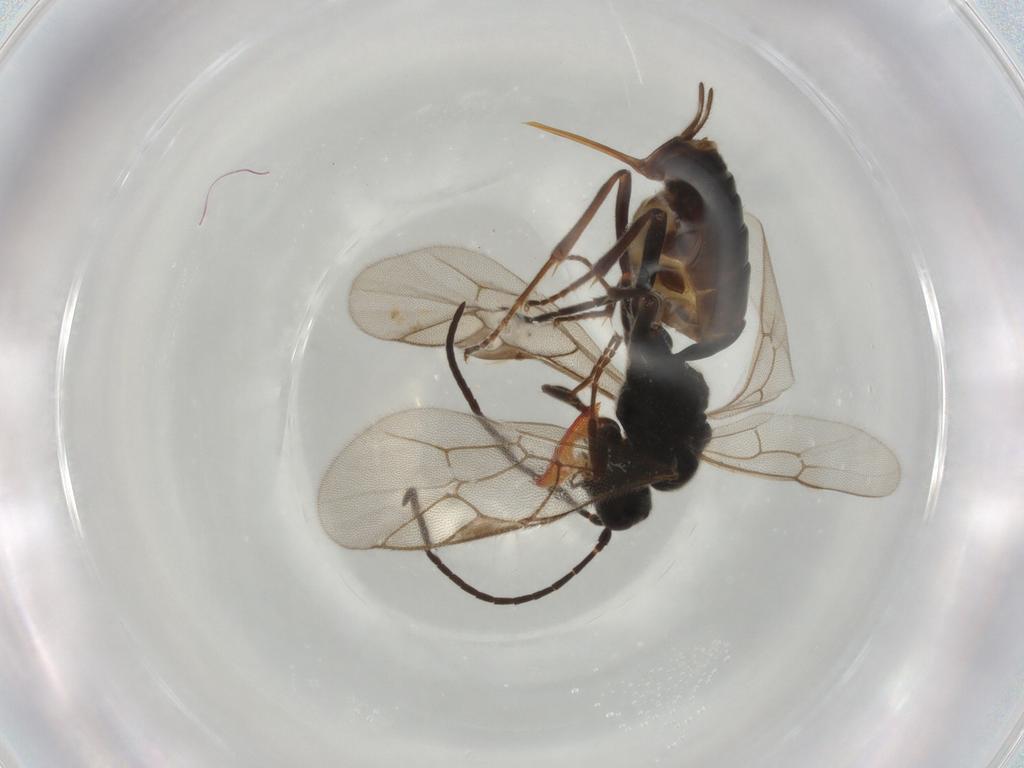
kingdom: Animalia
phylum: Arthropoda
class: Insecta
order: Hymenoptera
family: Ichneumonidae
